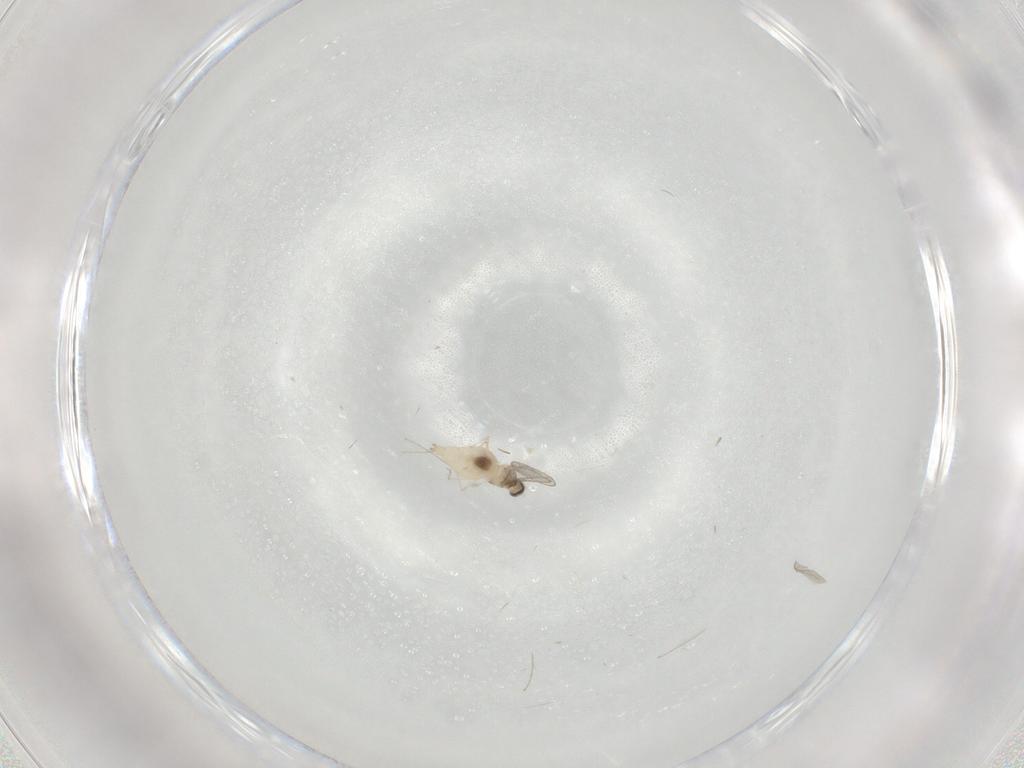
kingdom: Animalia
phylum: Arthropoda
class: Insecta
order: Diptera
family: Cecidomyiidae
